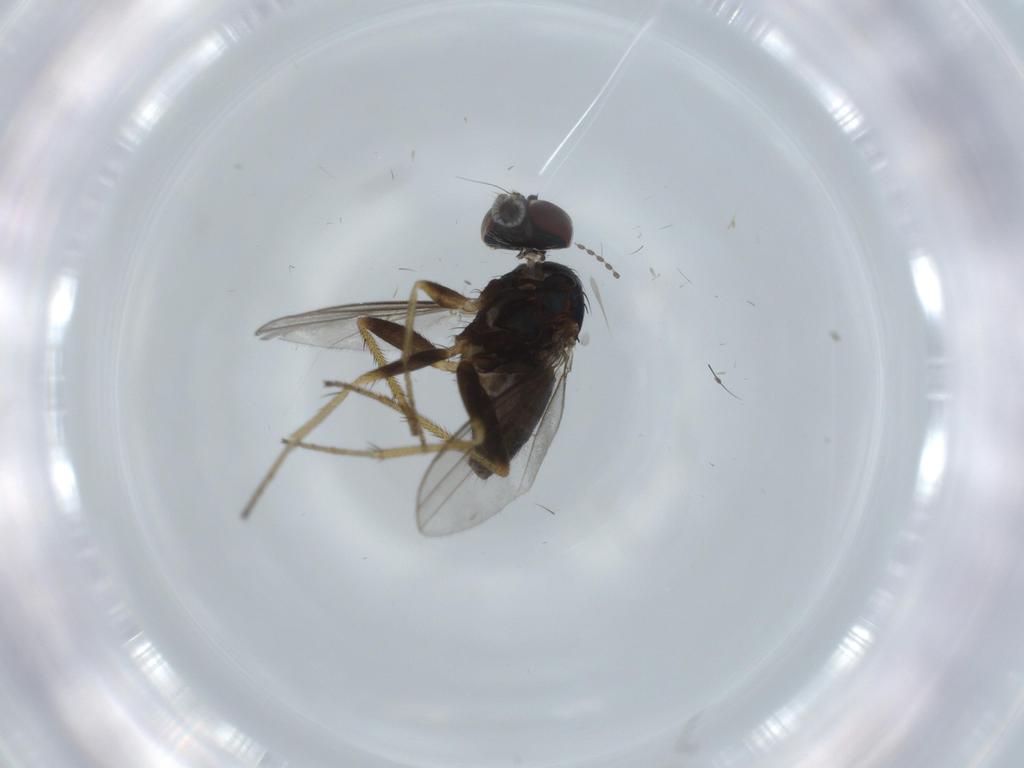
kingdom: Animalia
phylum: Arthropoda
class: Insecta
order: Diptera
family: Dolichopodidae
